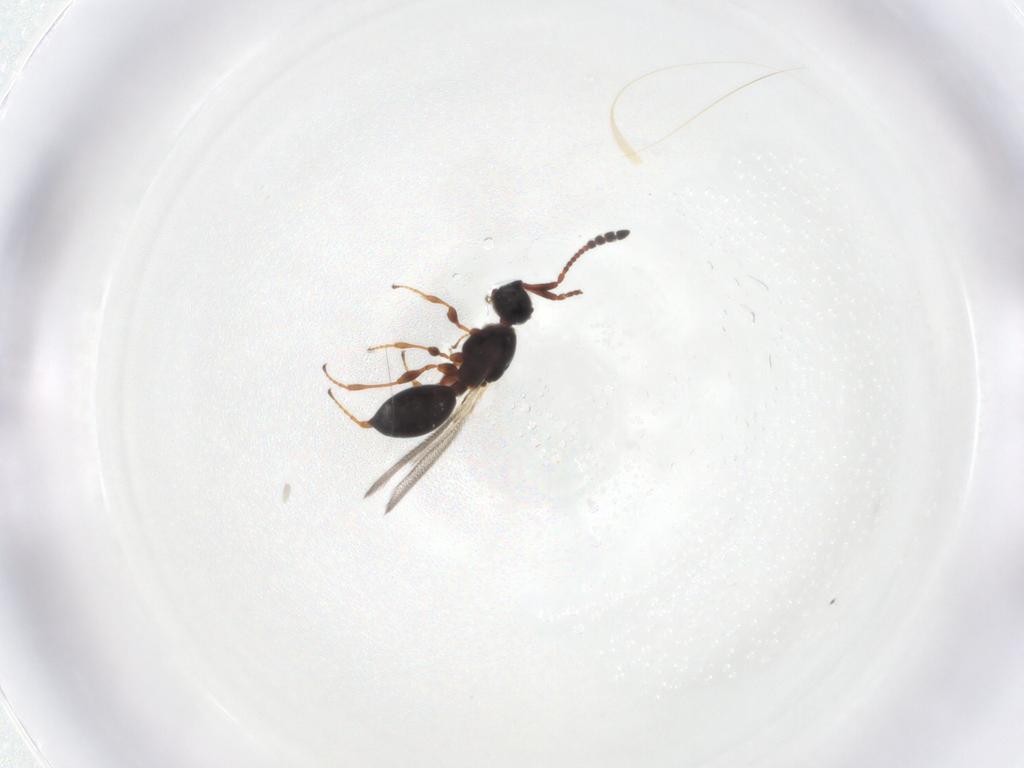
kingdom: Animalia
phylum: Arthropoda
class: Insecta
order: Hymenoptera
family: Diapriidae
